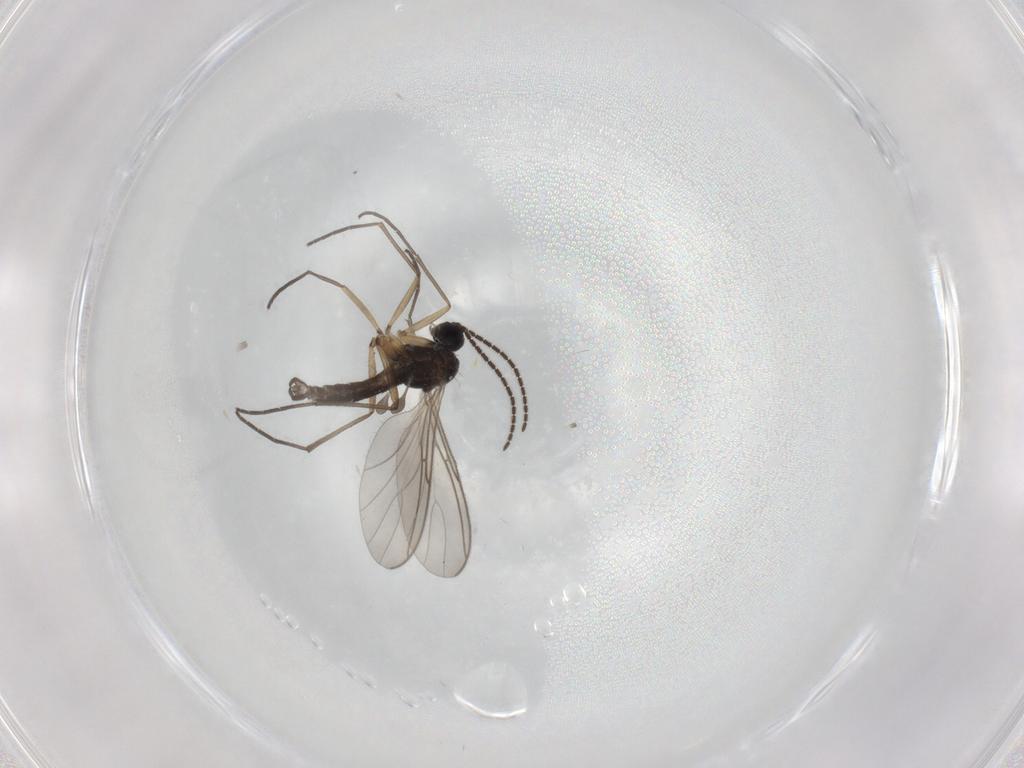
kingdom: Animalia
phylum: Arthropoda
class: Insecta
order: Diptera
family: Sciaridae
